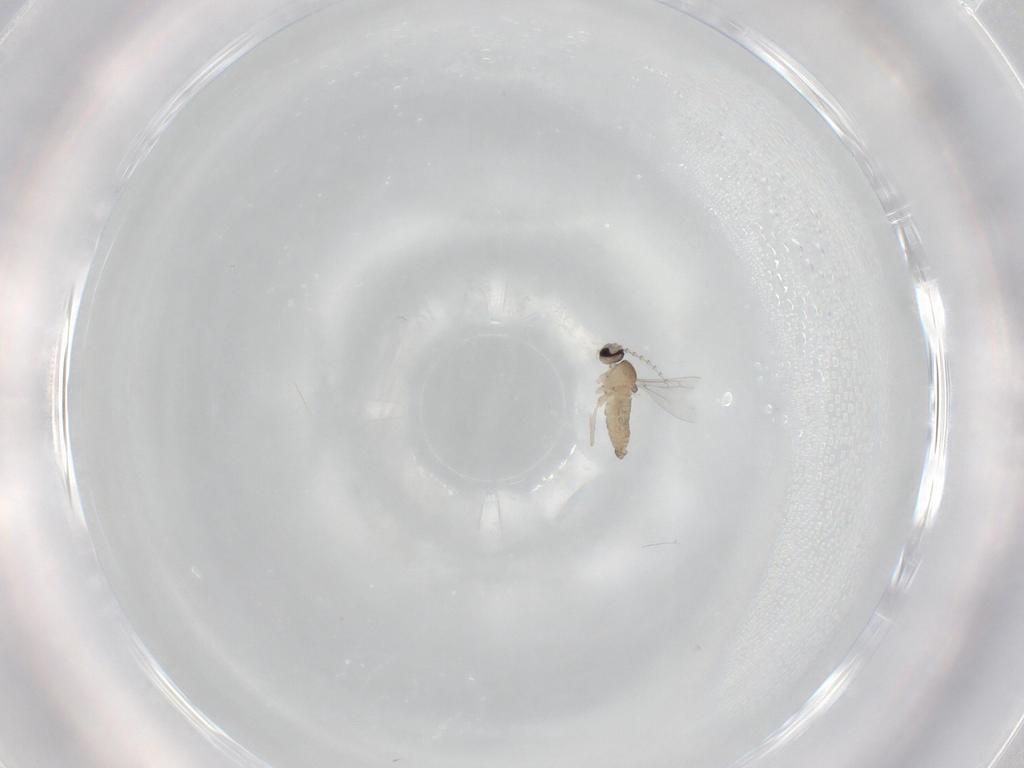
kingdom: Animalia
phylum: Arthropoda
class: Insecta
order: Diptera
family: Cecidomyiidae
